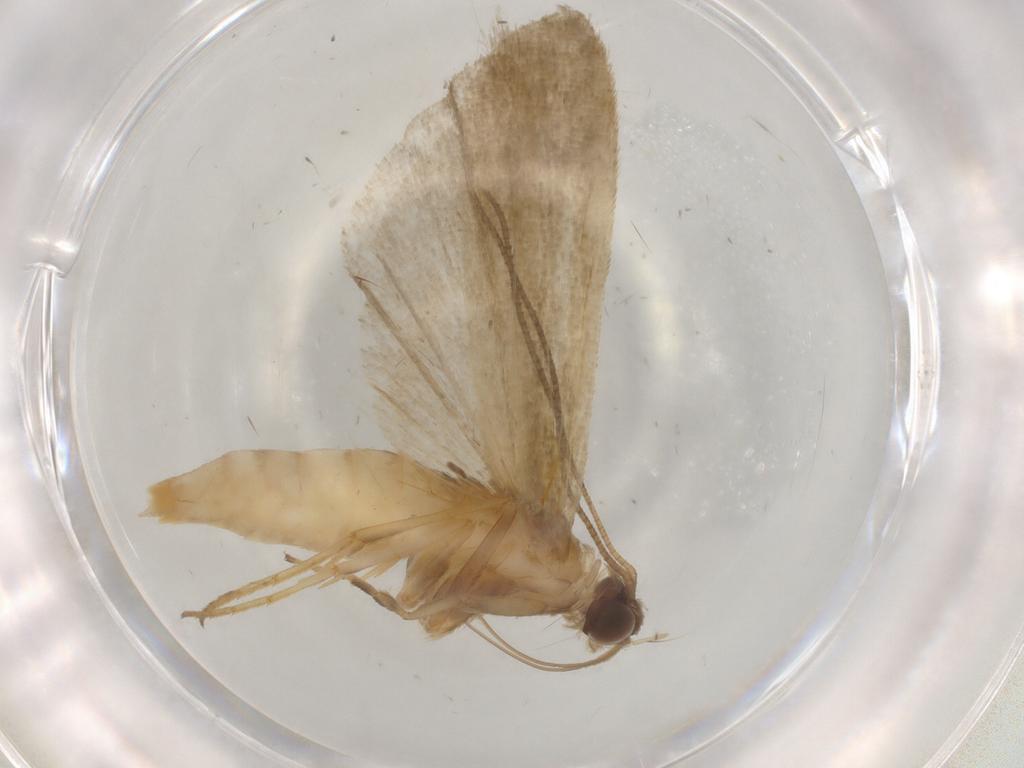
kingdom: Animalia
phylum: Arthropoda
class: Insecta
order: Lepidoptera
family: Noctuidae
